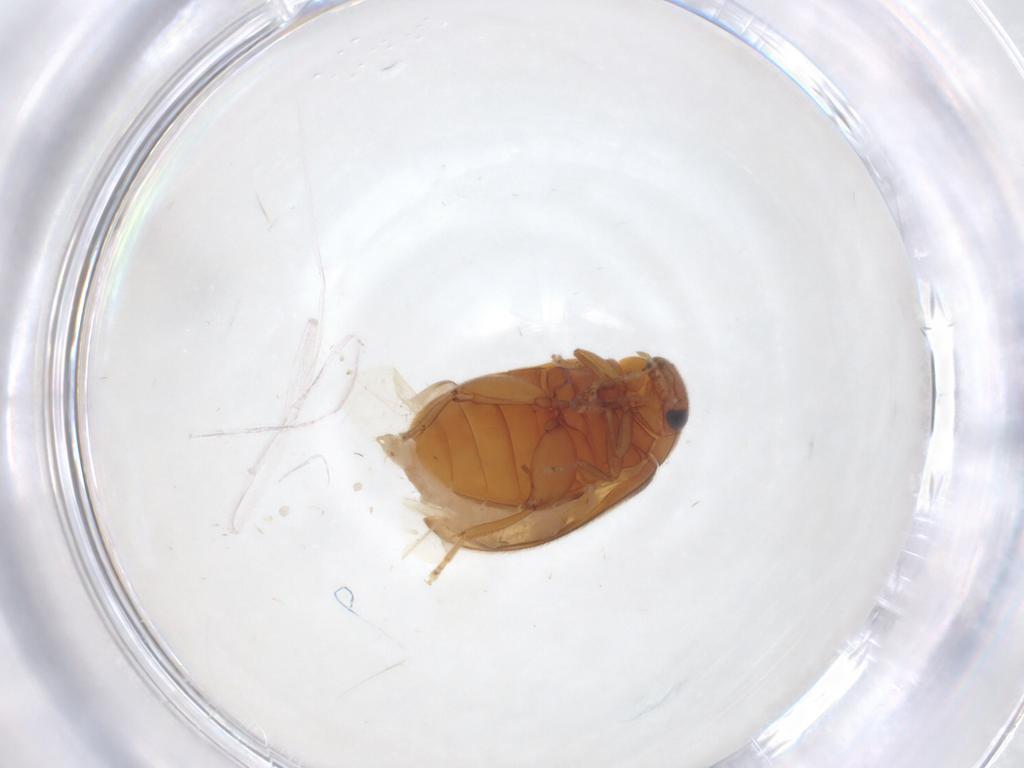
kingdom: Animalia
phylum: Arthropoda
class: Insecta
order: Coleoptera
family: Scirtidae
